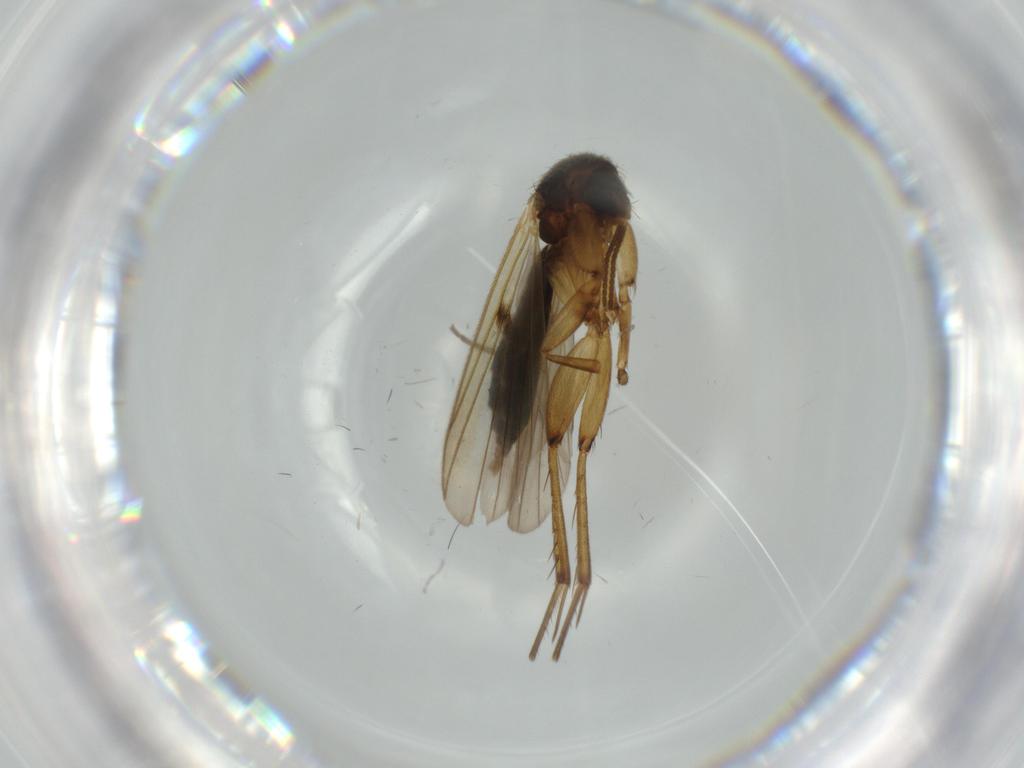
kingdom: Animalia
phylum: Arthropoda
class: Insecta
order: Diptera
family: Sciaridae
